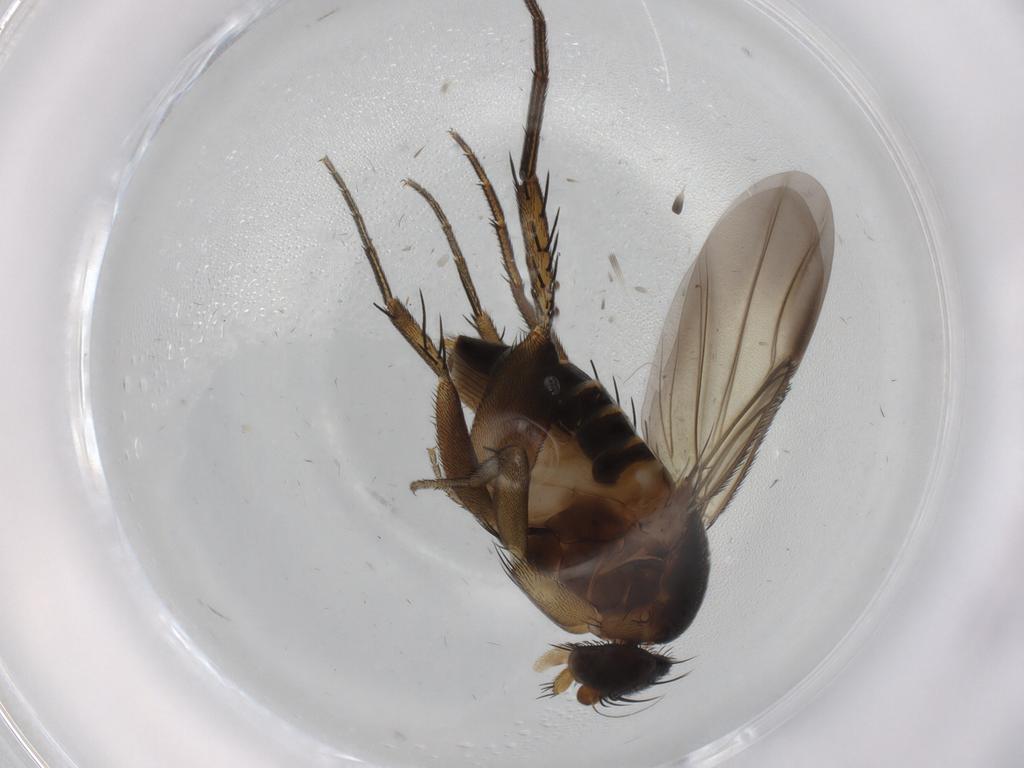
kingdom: Animalia
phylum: Arthropoda
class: Insecta
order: Diptera
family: Phoridae
